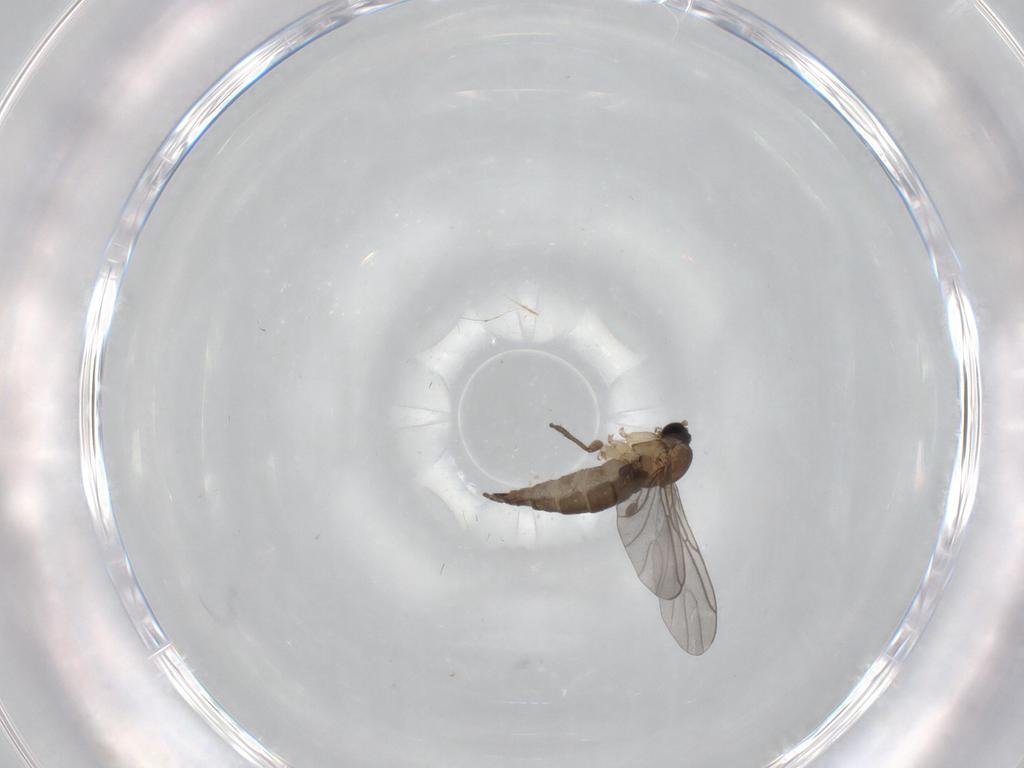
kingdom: Animalia
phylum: Arthropoda
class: Insecta
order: Diptera
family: Sciaridae
